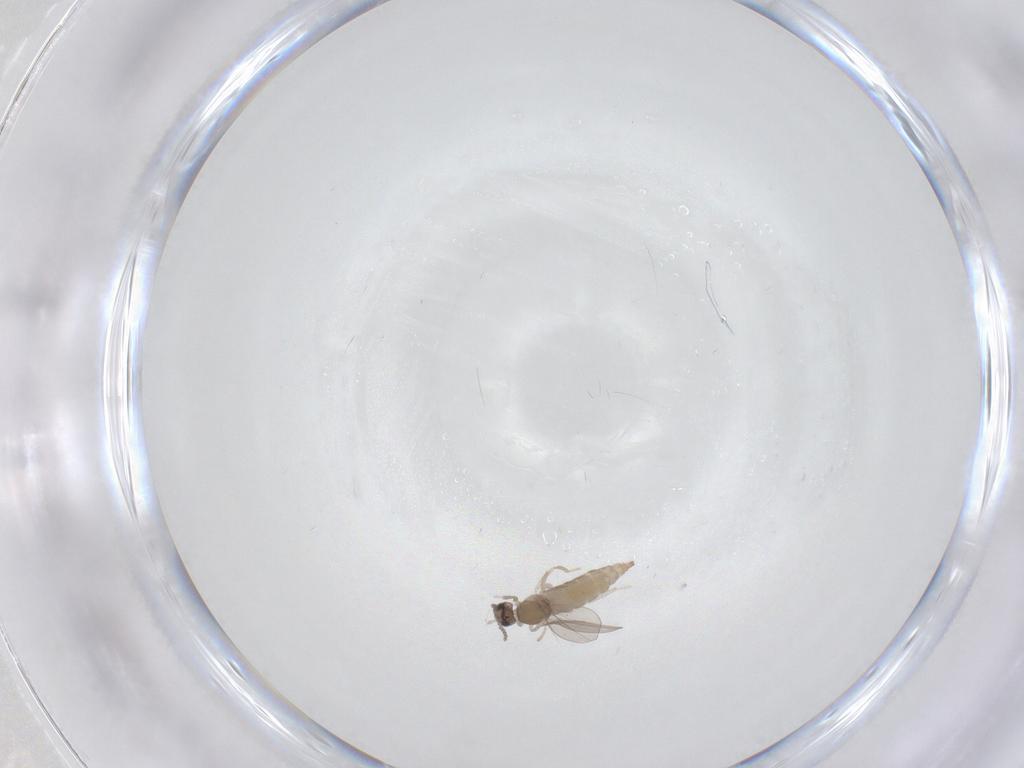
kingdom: Animalia
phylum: Arthropoda
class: Insecta
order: Diptera
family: Cecidomyiidae
